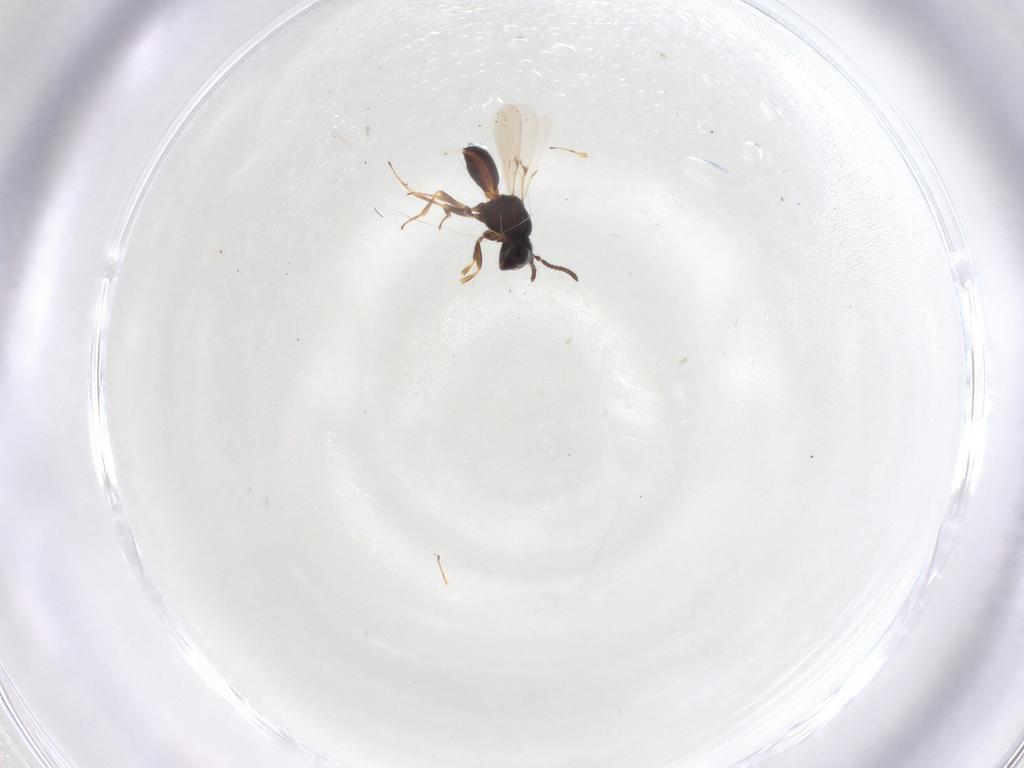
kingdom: Animalia
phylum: Arthropoda
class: Insecta
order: Hymenoptera
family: Scelionidae
